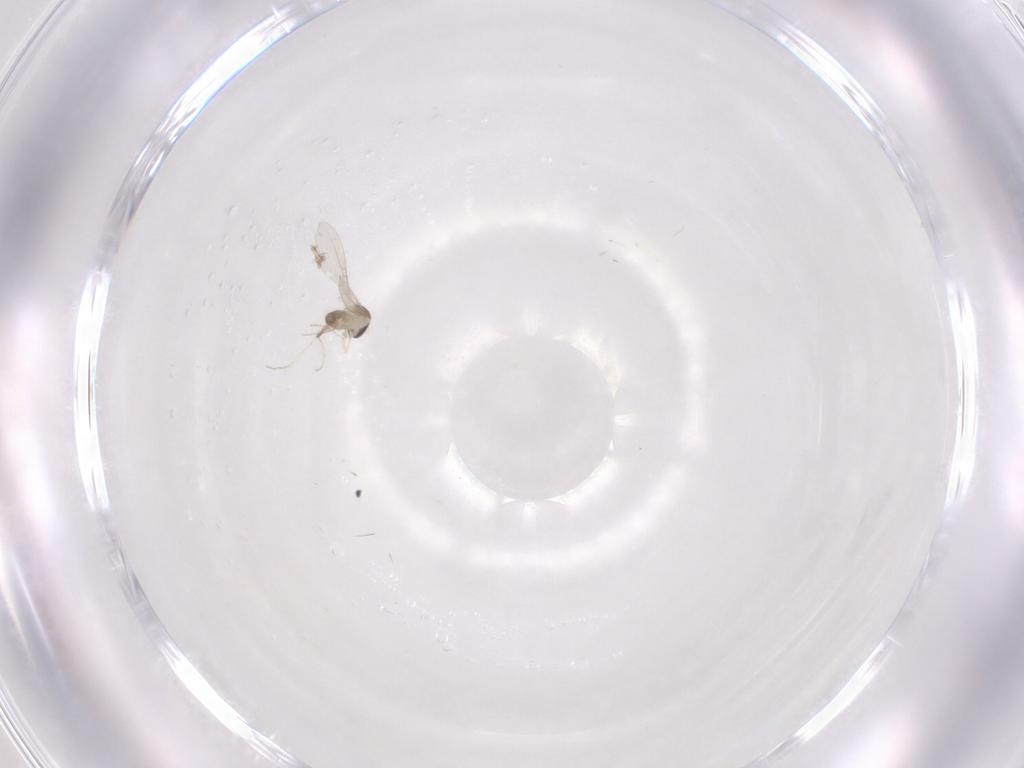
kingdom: Animalia
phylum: Arthropoda
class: Insecta
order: Diptera
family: Cecidomyiidae
